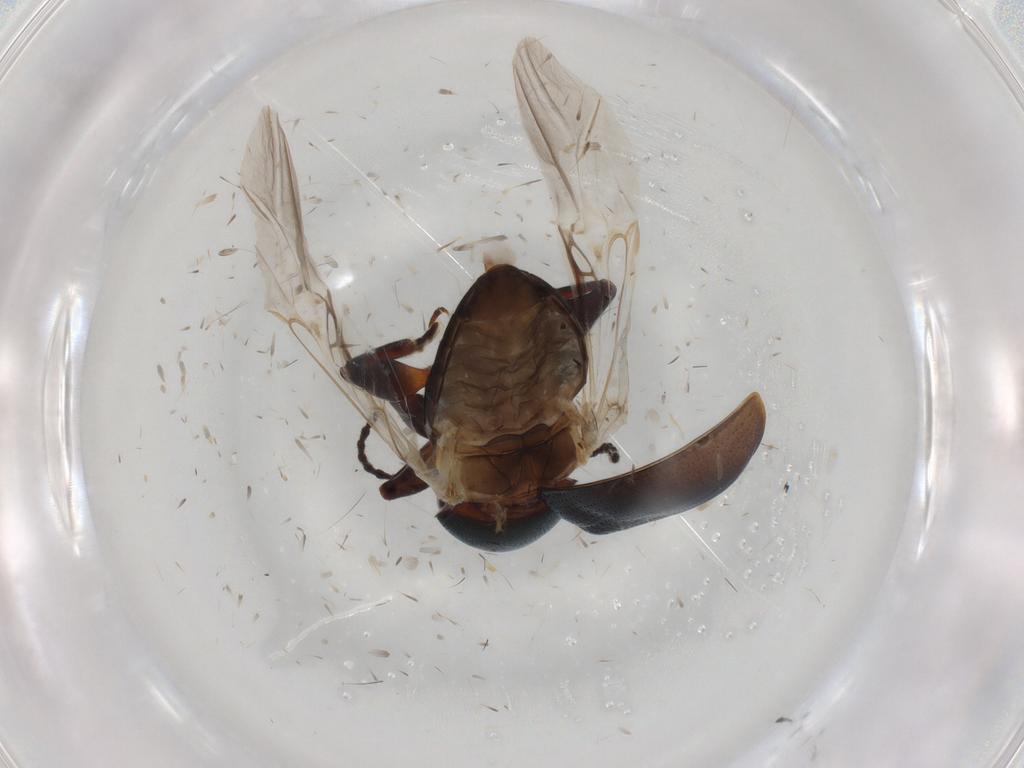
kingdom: Animalia
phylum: Arthropoda
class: Insecta
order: Coleoptera
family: Chrysomelidae
